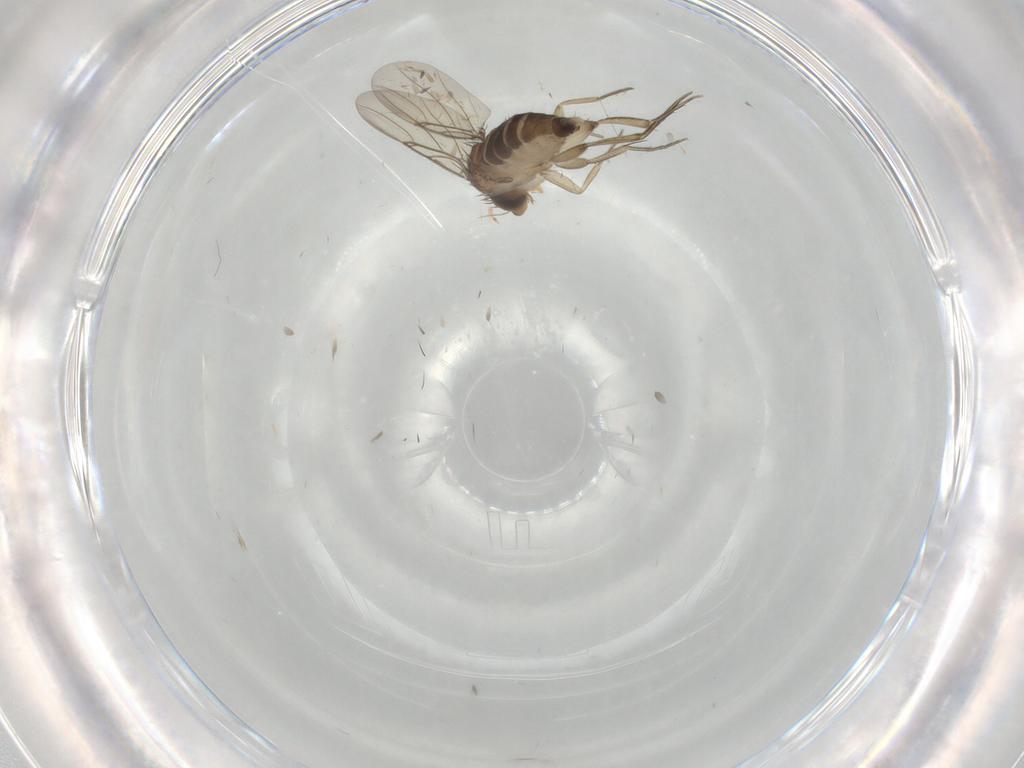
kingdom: Animalia
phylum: Arthropoda
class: Insecta
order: Diptera
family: Phoridae
